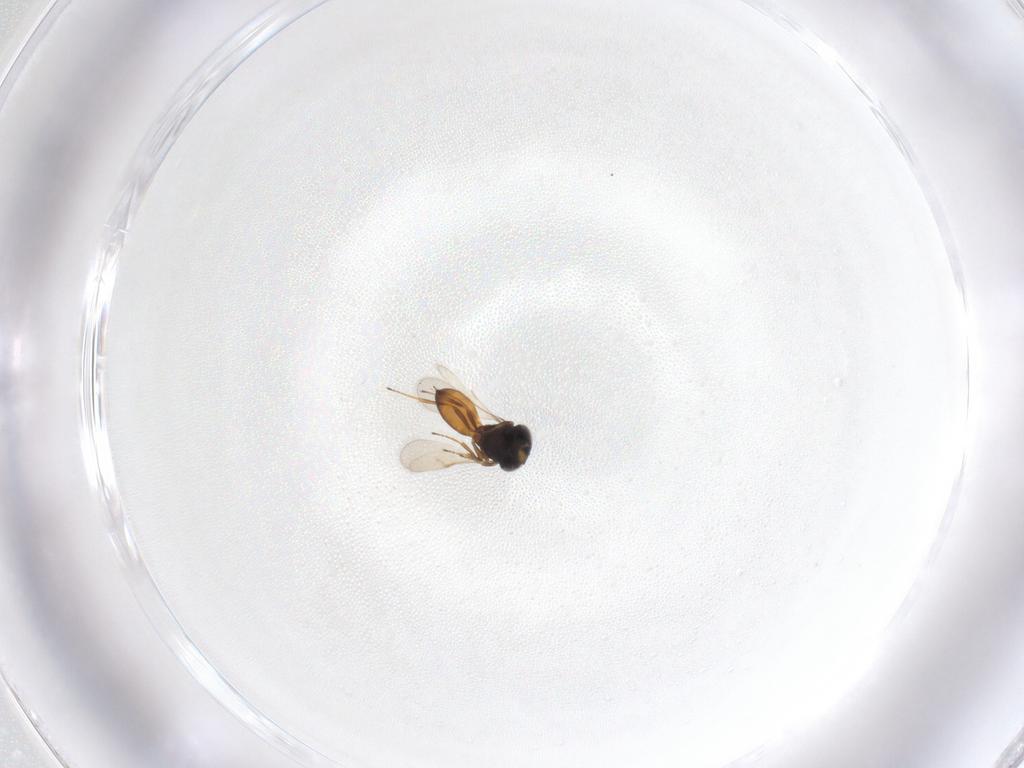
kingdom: Animalia
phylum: Arthropoda
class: Insecta
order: Hymenoptera
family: Scelionidae
